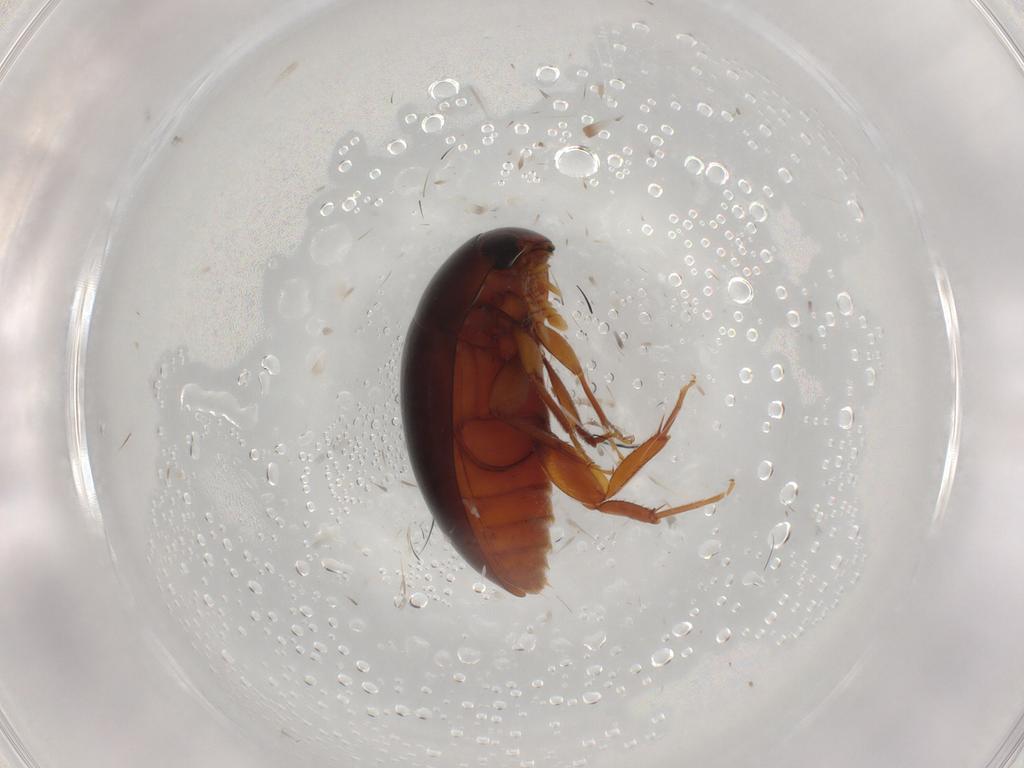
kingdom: Animalia
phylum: Arthropoda
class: Insecta
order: Coleoptera
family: Phalacridae
